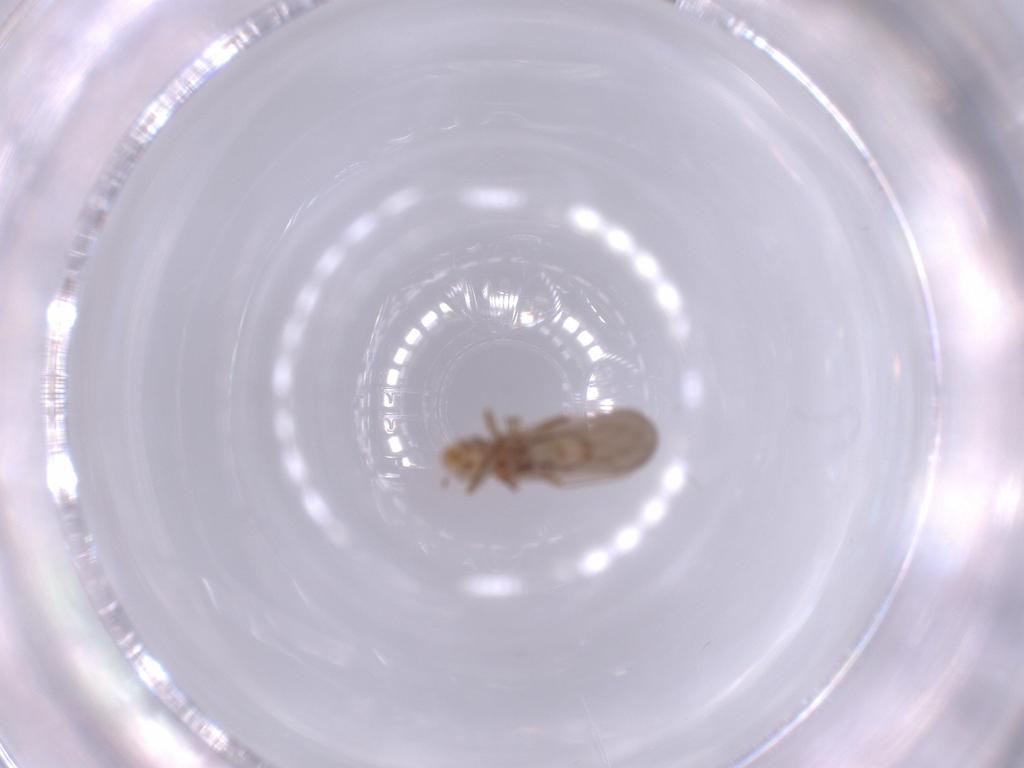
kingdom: Animalia
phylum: Arthropoda
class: Insecta
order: Psocodea
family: Lepidopsocidae
